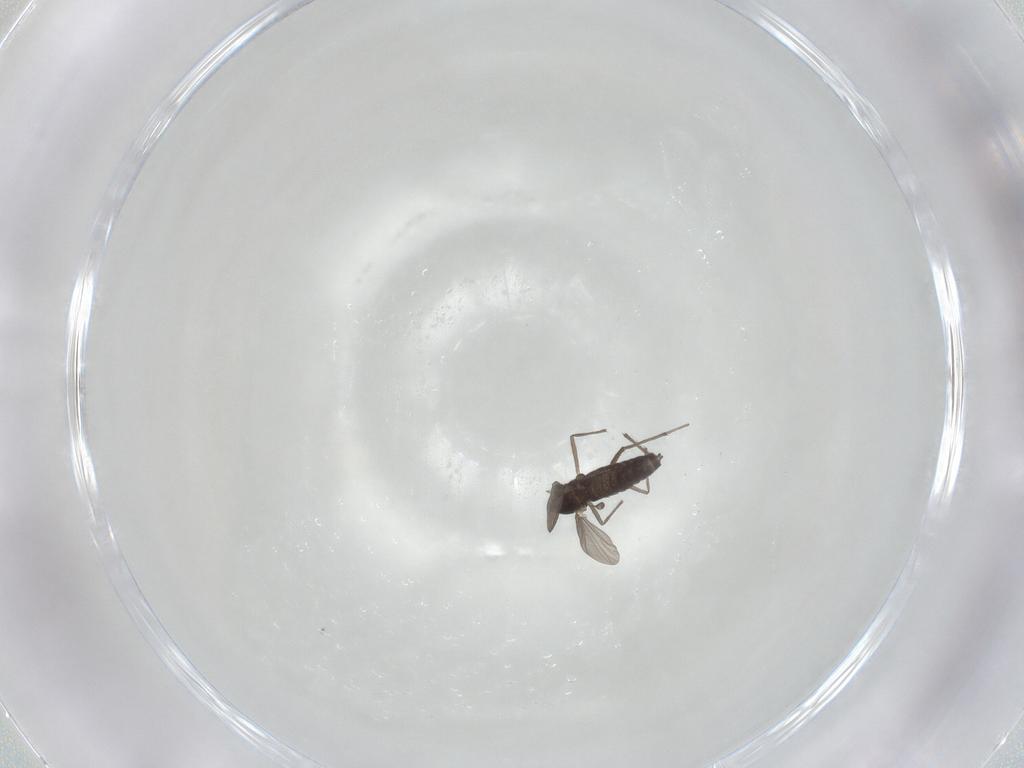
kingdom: Animalia
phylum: Arthropoda
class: Insecta
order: Diptera
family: Chironomidae
